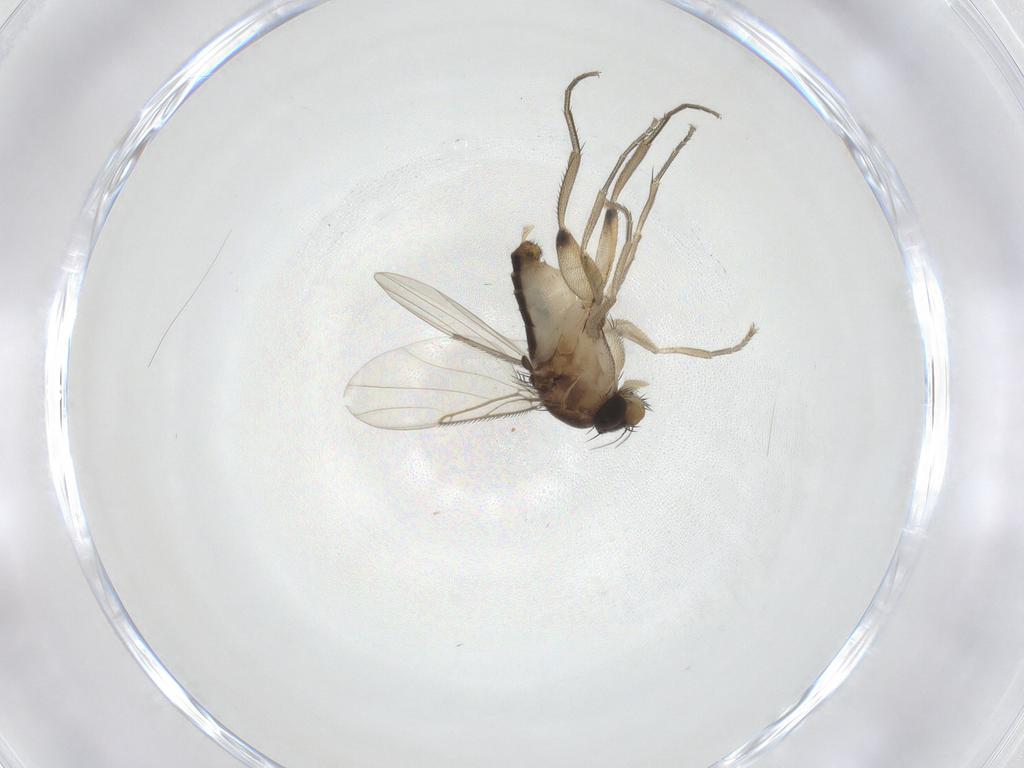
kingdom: Animalia
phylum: Arthropoda
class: Insecta
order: Diptera
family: Phoridae
